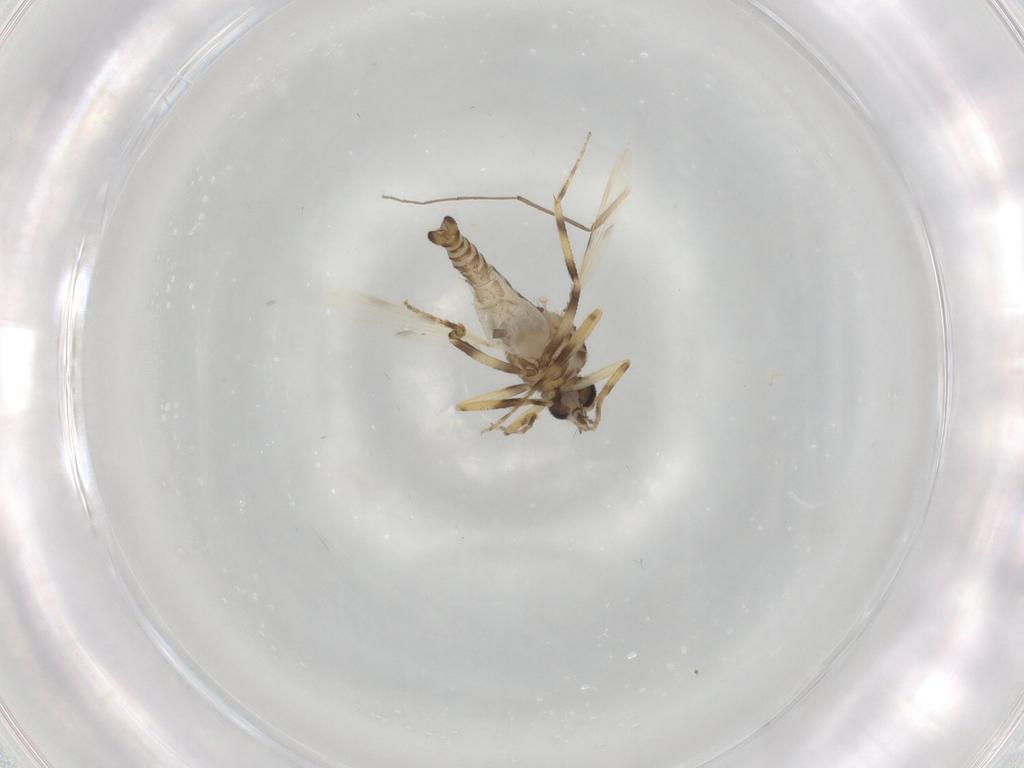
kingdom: Animalia
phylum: Arthropoda
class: Insecta
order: Diptera
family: Ceratopogonidae
